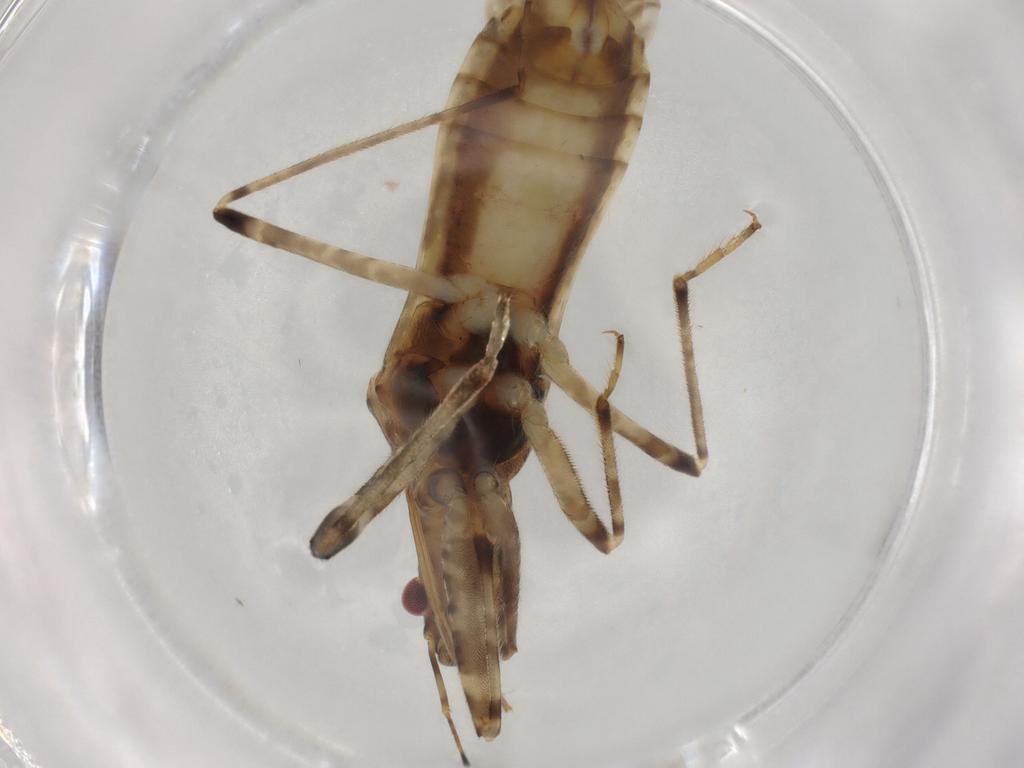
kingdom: Animalia
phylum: Arthropoda
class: Insecta
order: Hemiptera
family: Nabidae
